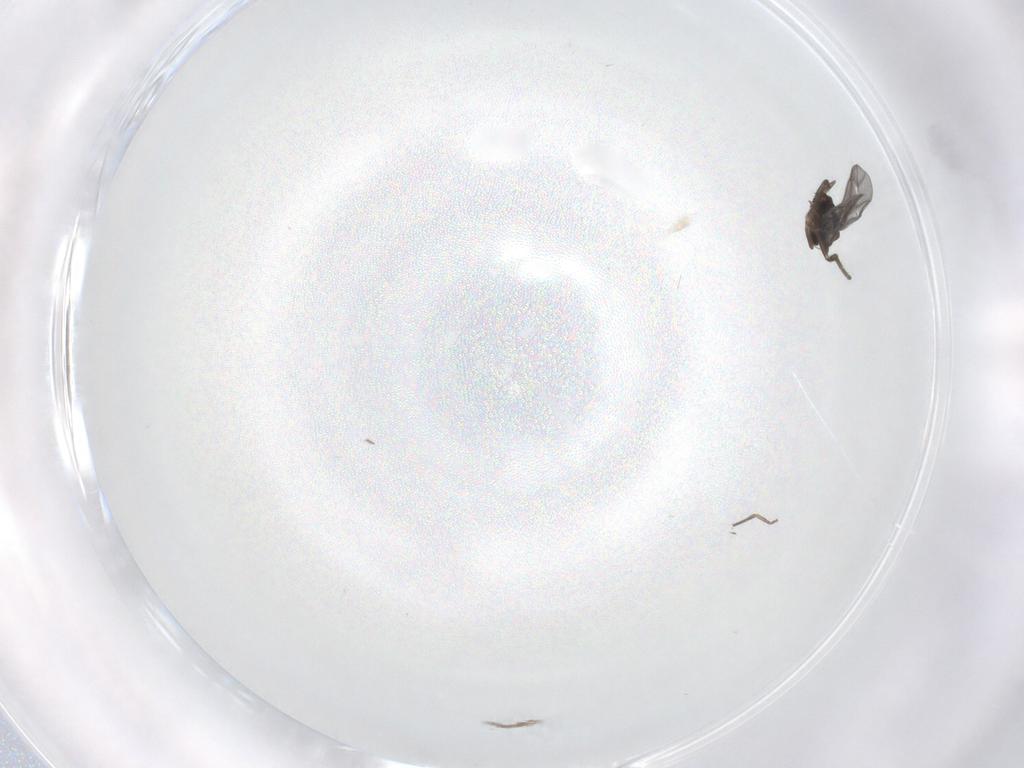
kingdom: Animalia
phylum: Arthropoda
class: Insecta
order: Diptera
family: Phoridae
